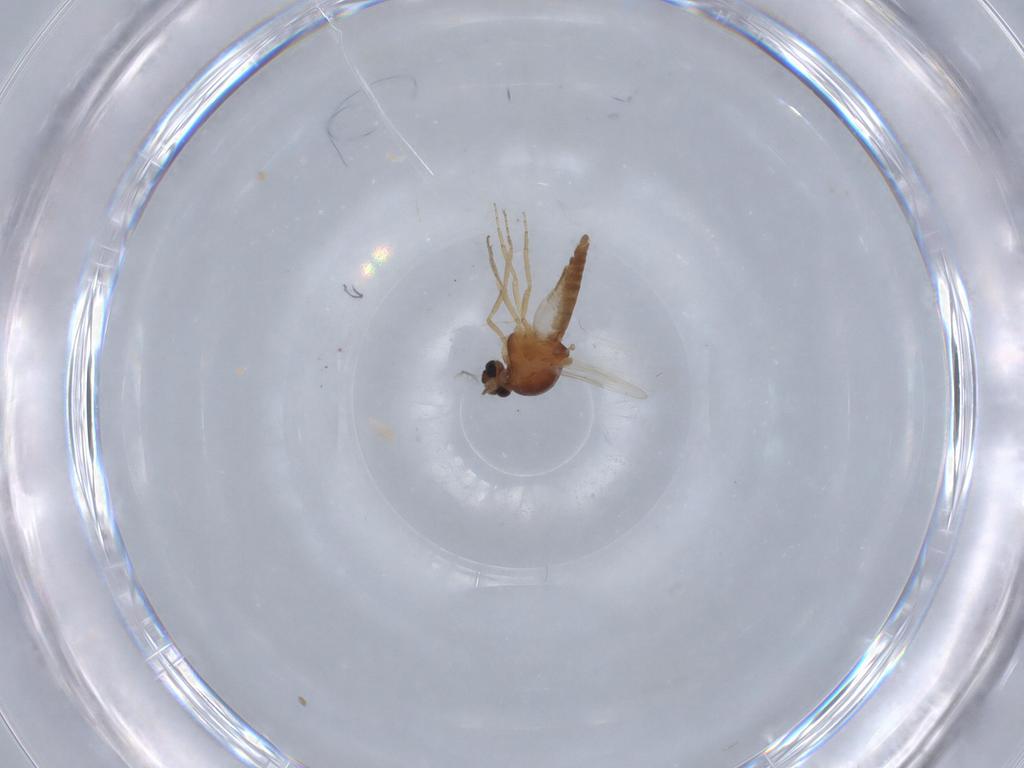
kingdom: Animalia
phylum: Arthropoda
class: Insecta
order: Diptera
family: Ceratopogonidae
